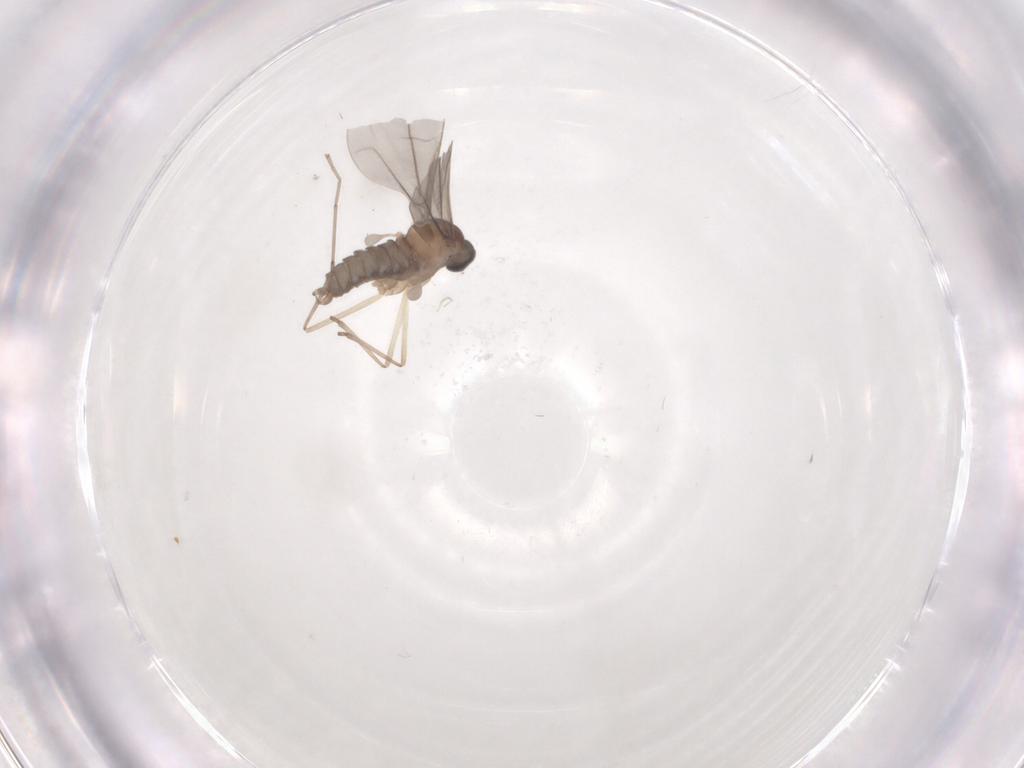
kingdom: Animalia
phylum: Arthropoda
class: Insecta
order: Diptera
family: Cecidomyiidae
